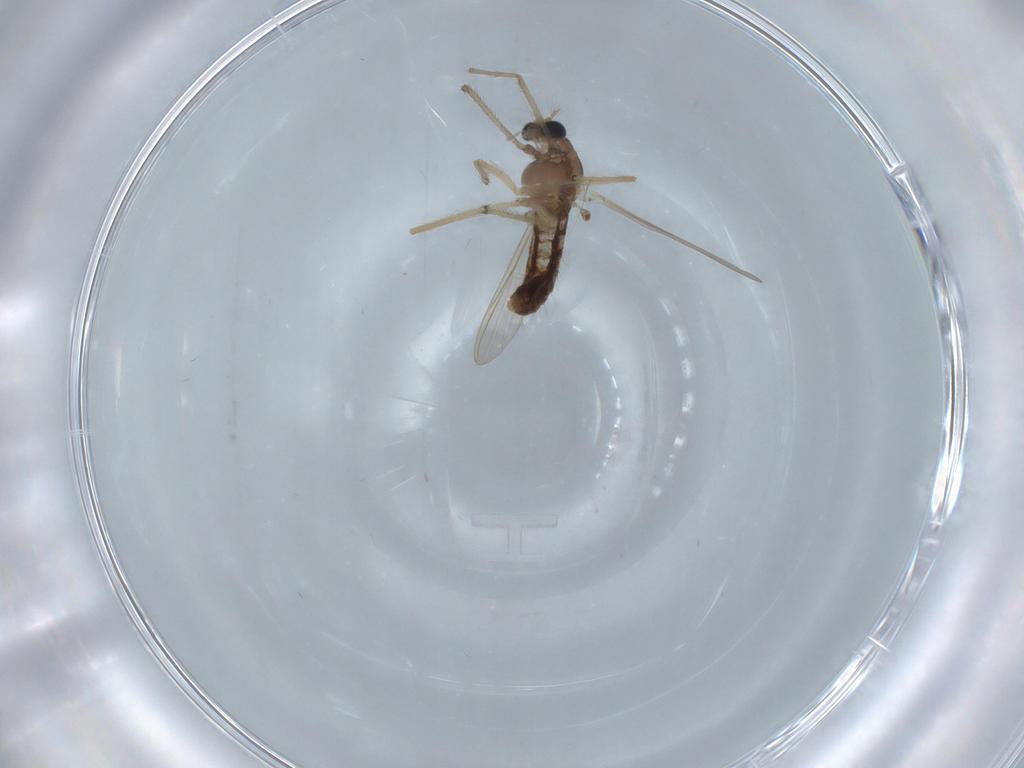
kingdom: Animalia
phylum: Arthropoda
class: Insecta
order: Diptera
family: Chironomidae
